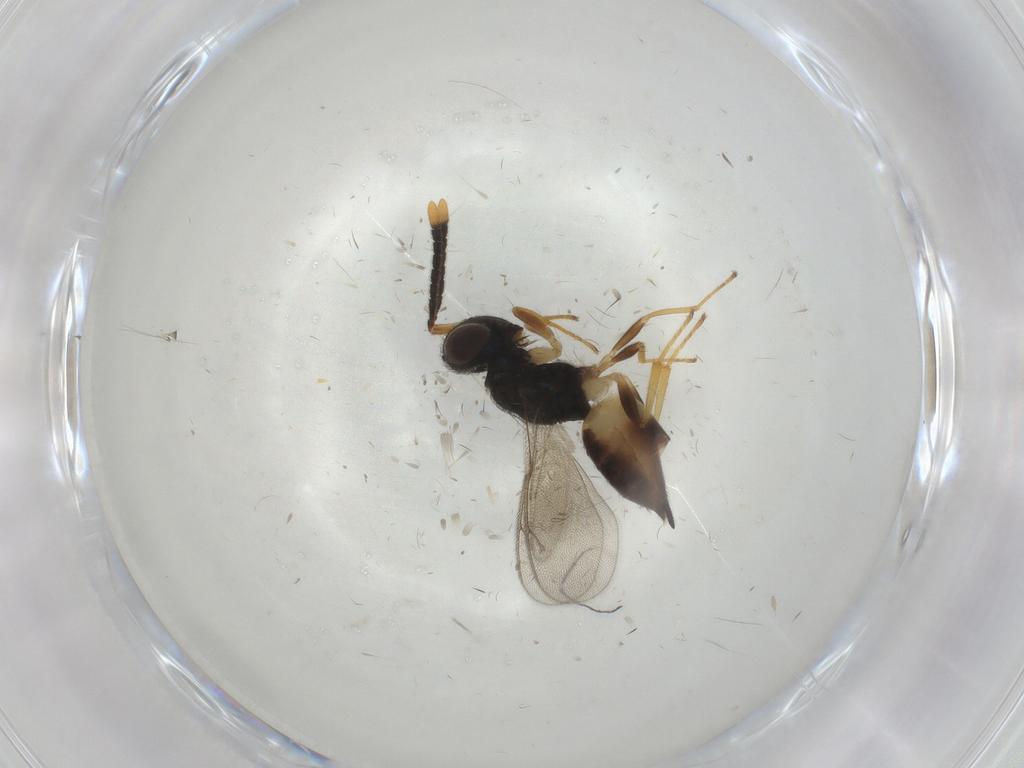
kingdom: Animalia
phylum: Arthropoda
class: Insecta
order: Hymenoptera
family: Pteromalidae
